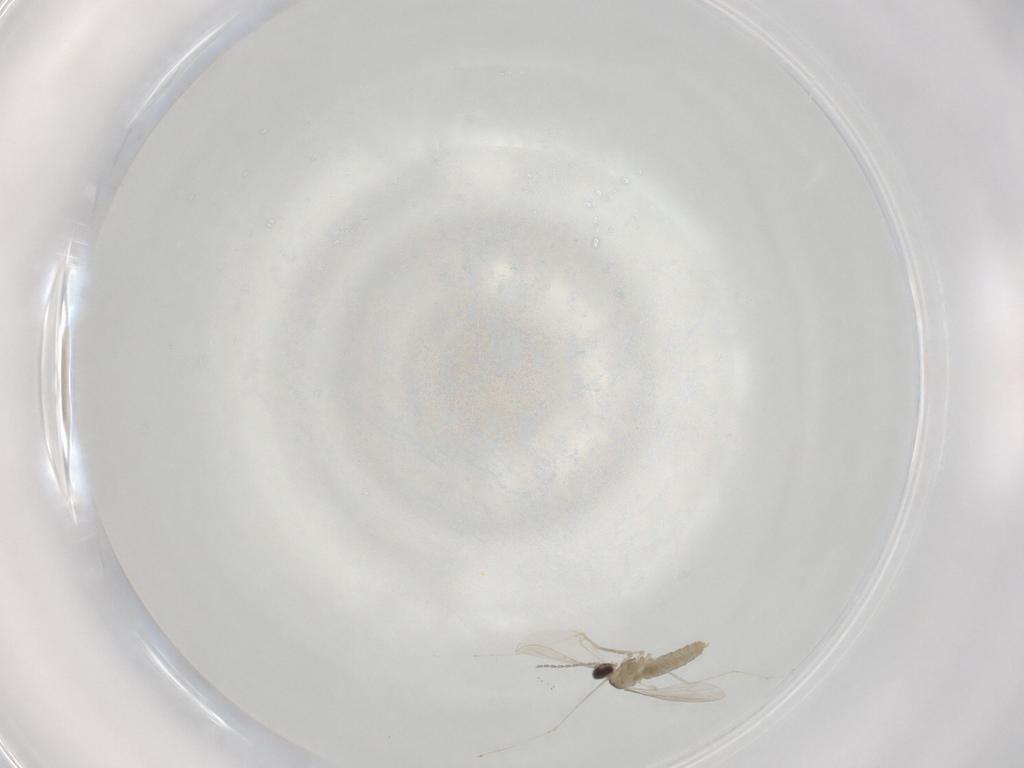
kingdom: Animalia
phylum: Arthropoda
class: Insecta
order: Diptera
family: Cecidomyiidae
